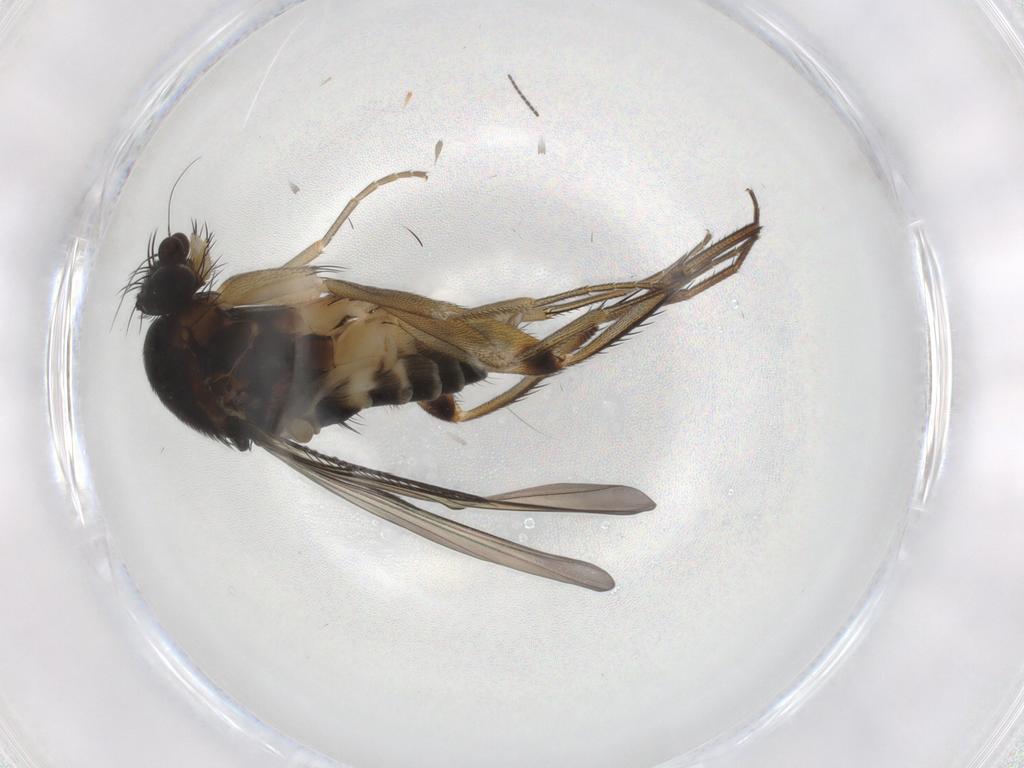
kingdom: Animalia
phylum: Arthropoda
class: Insecta
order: Diptera
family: Phoridae
